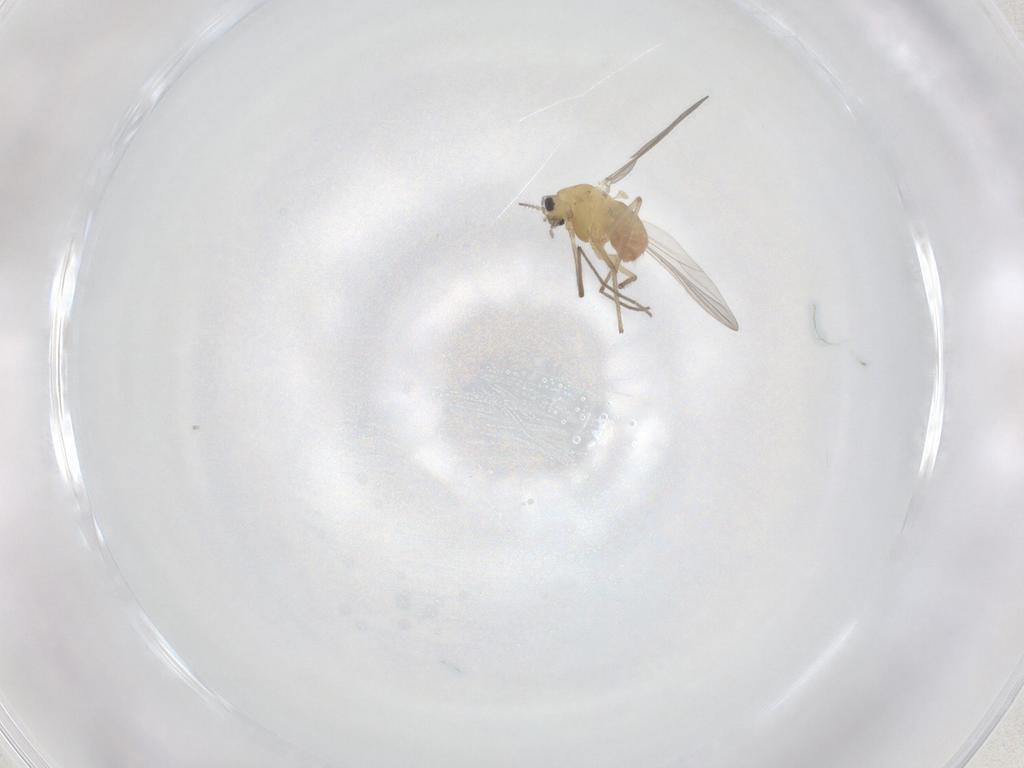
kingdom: Animalia
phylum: Arthropoda
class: Insecta
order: Diptera
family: Chironomidae
